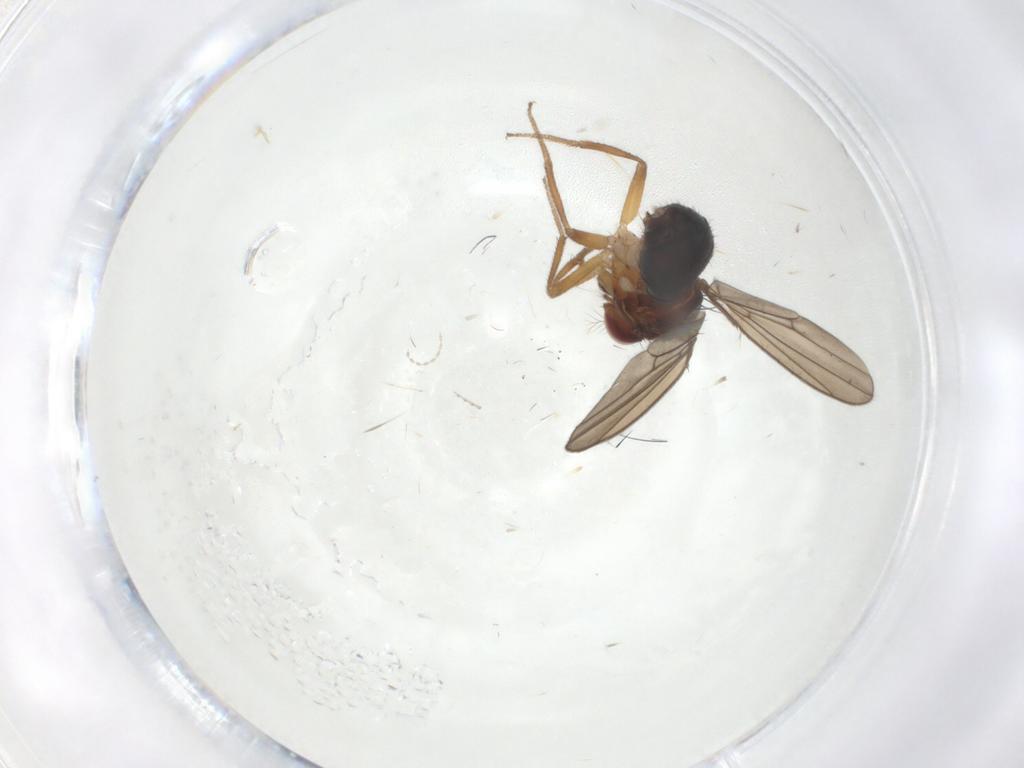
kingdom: Animalia
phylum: Arthropoda
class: Insecta
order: Diptera
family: Drosophilidae
